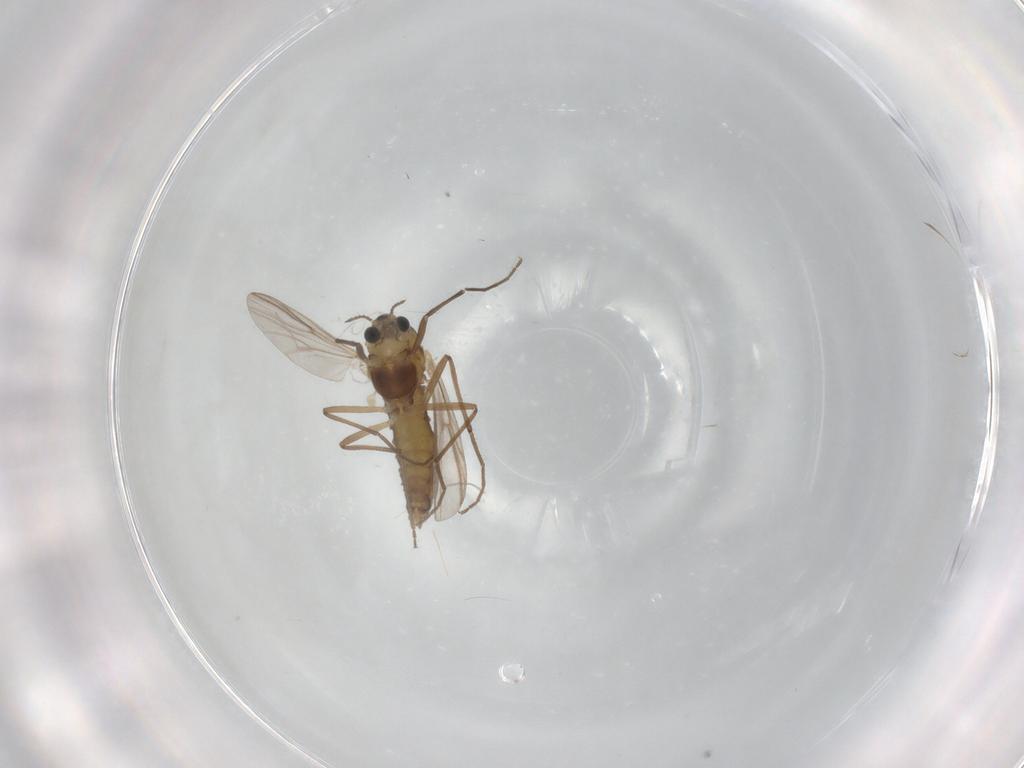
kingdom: Animalia
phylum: Arthropoda
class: Insecta
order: Diptera
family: Chironomidae
